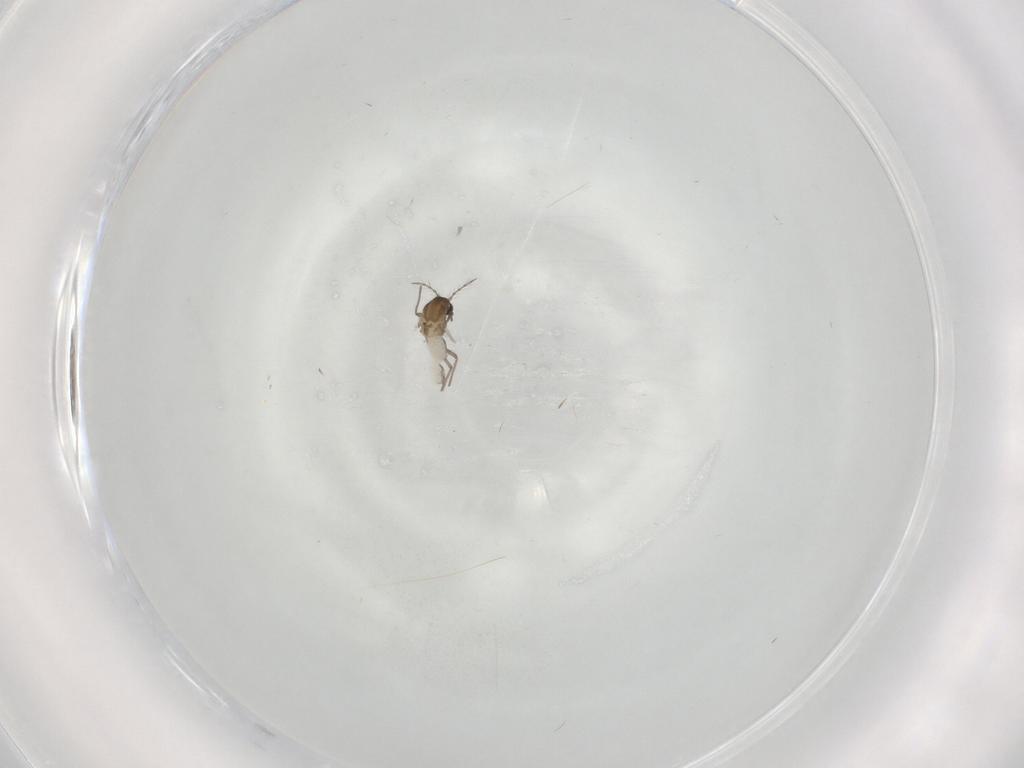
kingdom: Animalia
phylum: Arthropoda
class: Insecta
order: Diptera
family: Chironomidae
